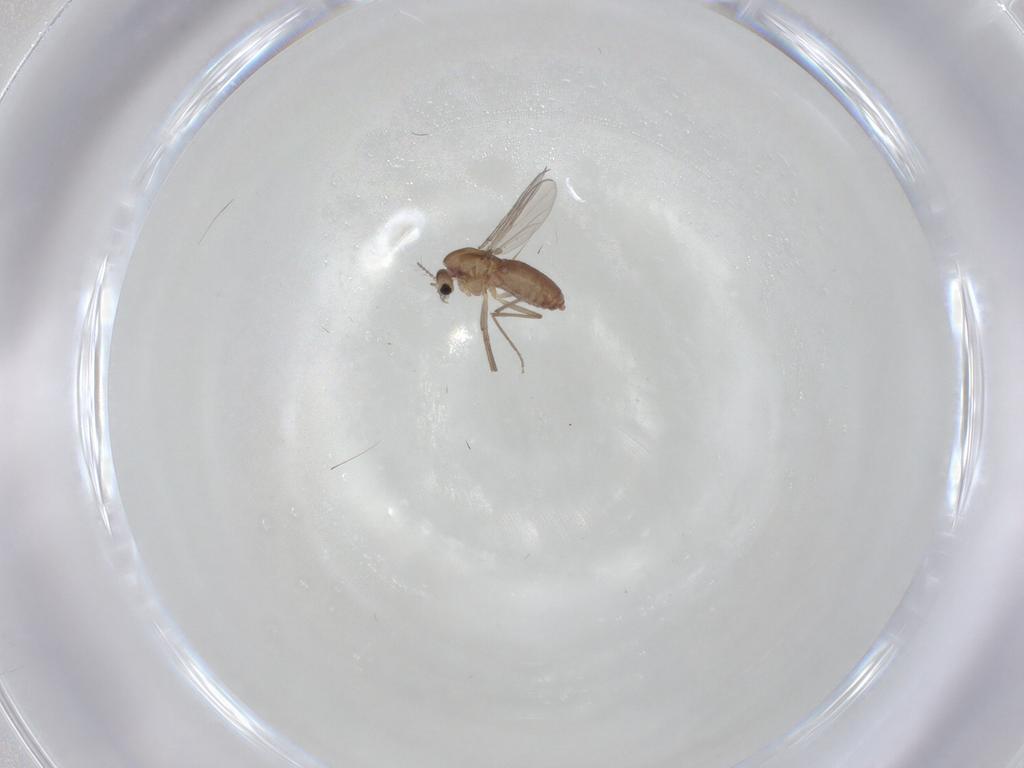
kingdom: Animalia
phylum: Arthropoda
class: Insecta
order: Diptera
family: Chironomidae
